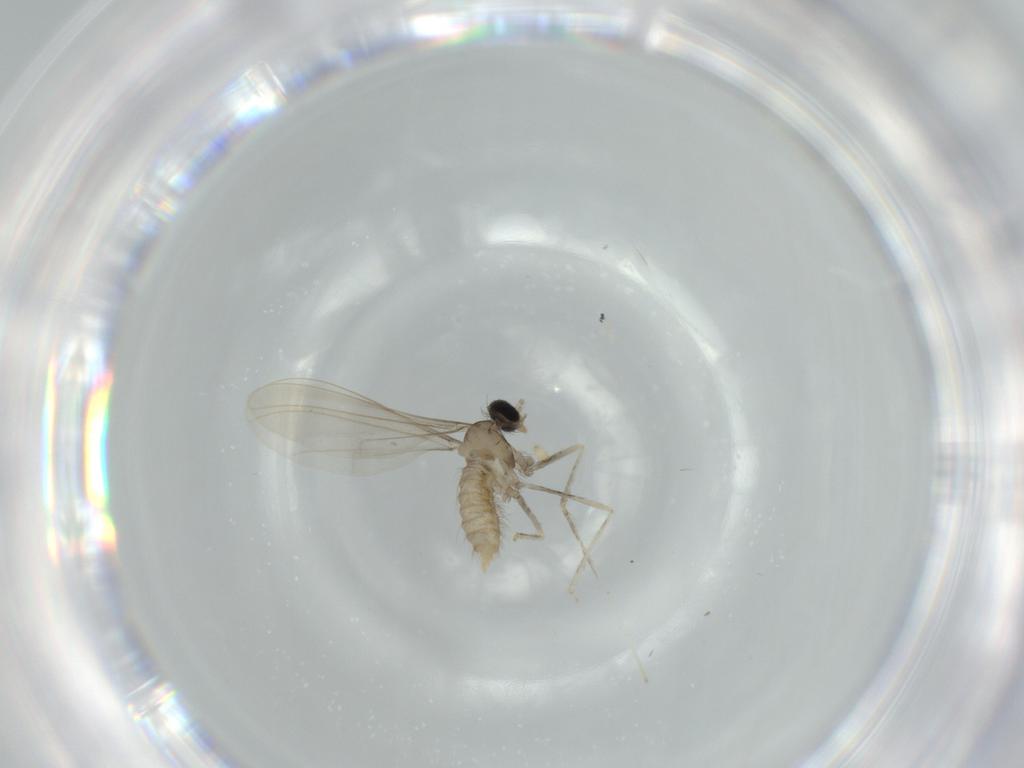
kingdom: Animalia
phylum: Arthropoda
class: Insecta
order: Diptera
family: Cecidomyiidae
